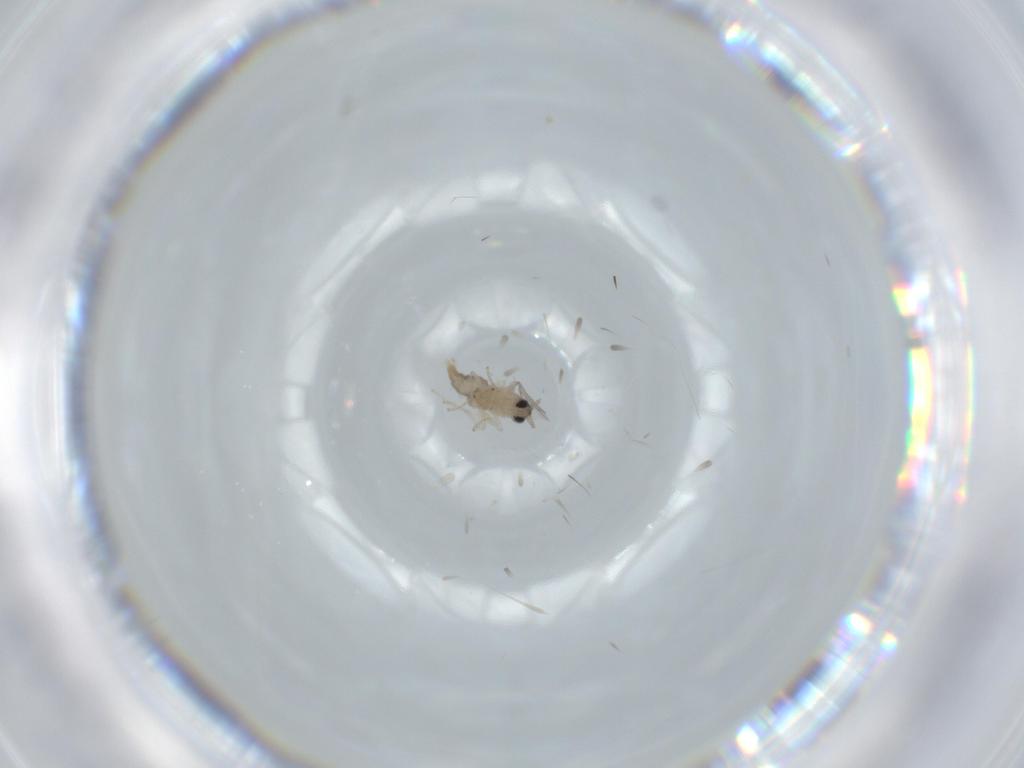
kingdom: Animalia
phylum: Arthropoda
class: Insecta
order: Diptera
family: Cecidomyiidae
